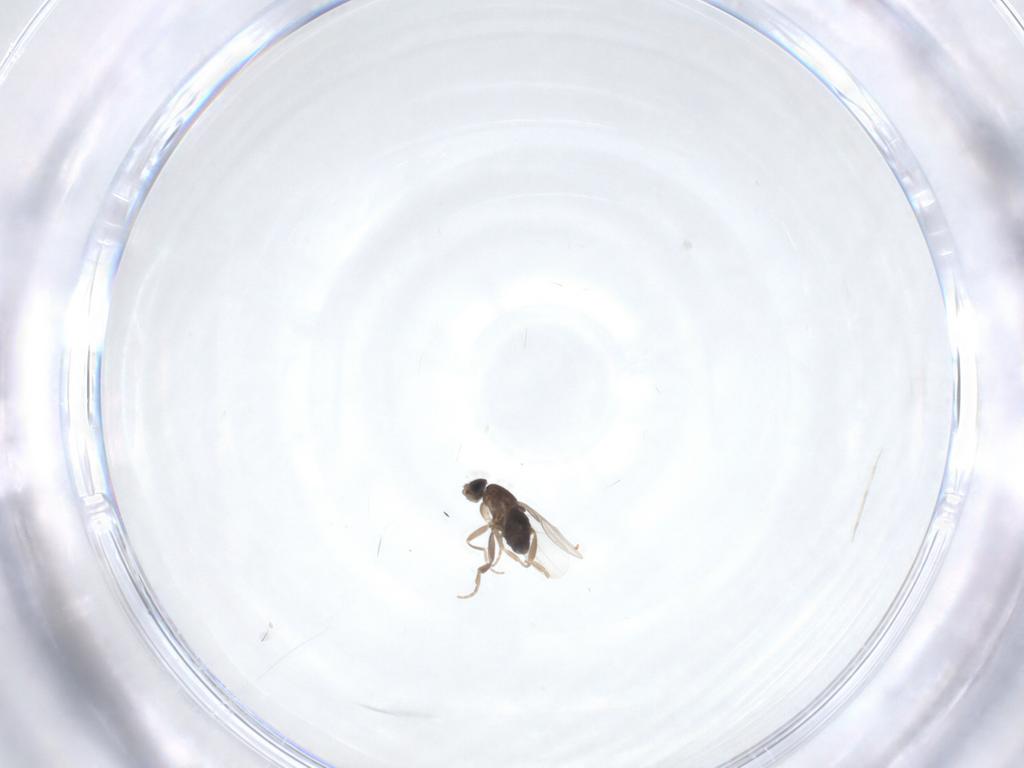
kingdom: Animalia
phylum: Arthropoda
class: Insecta
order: Diptera
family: Phoridae
